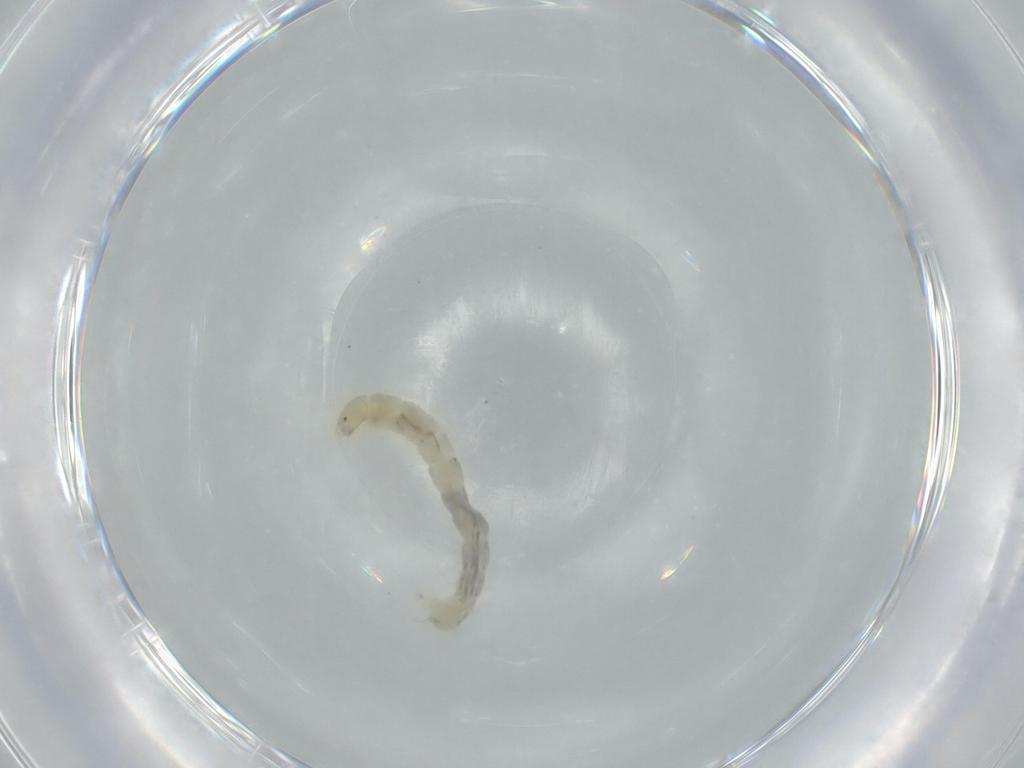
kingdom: Animalia
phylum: Arthropoda
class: Insecta
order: Diptera
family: Chironomidae
